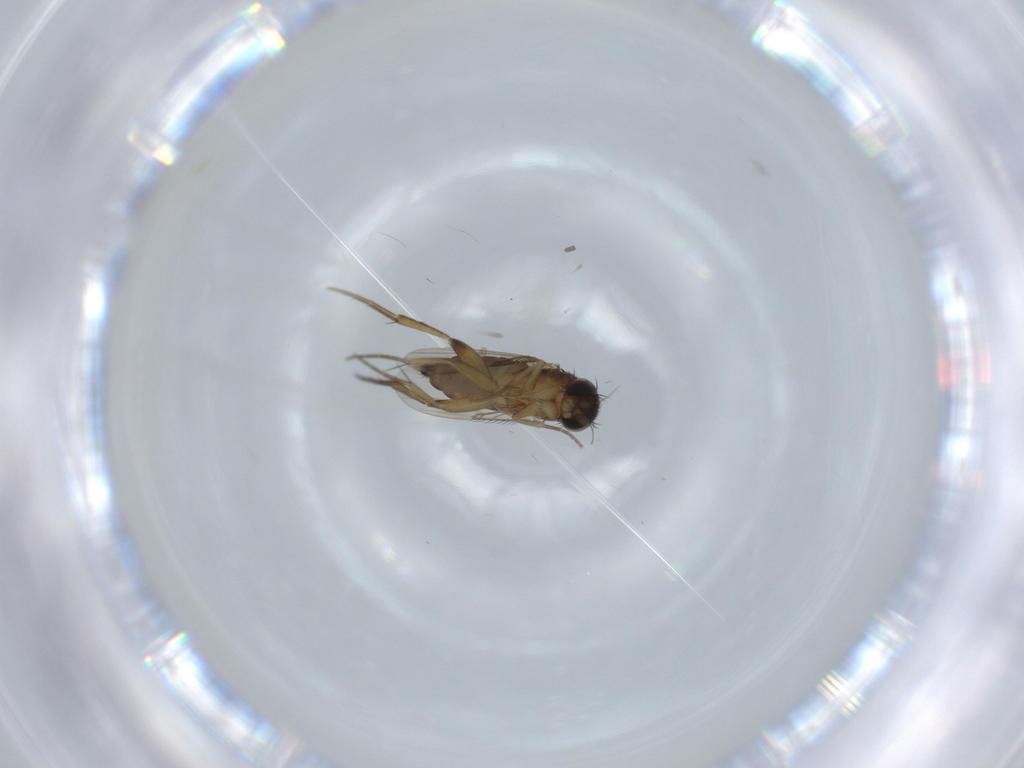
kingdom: Animalia
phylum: Arthropoda
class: Insecta
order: Diptera
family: Dolichopodidae
